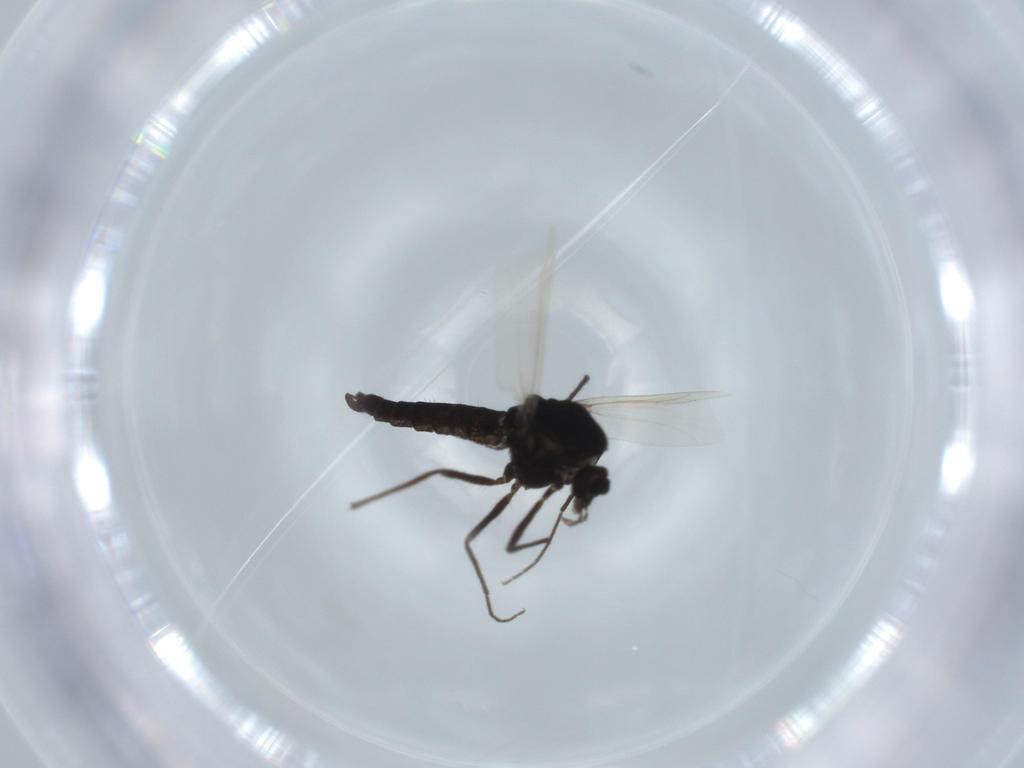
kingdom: Animalia
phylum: Arthropoda
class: Insecta
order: Diptera
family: Chironomidae
